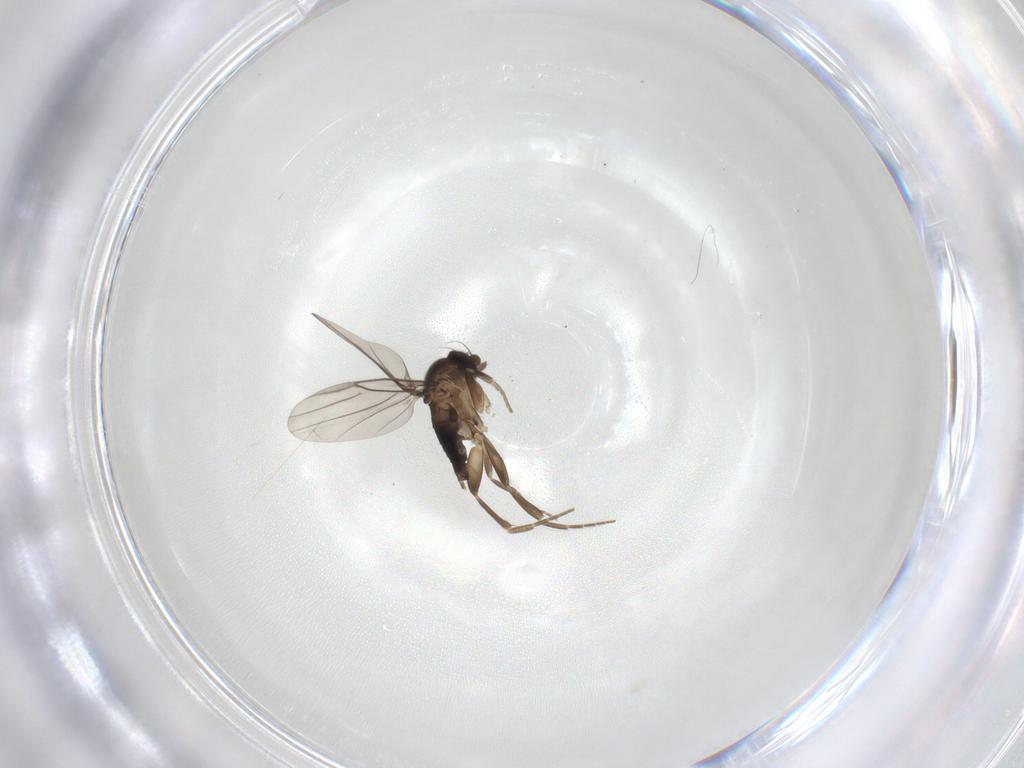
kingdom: Animalia
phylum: Arthropoda
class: Insecta
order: Diptera
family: Phoridae
